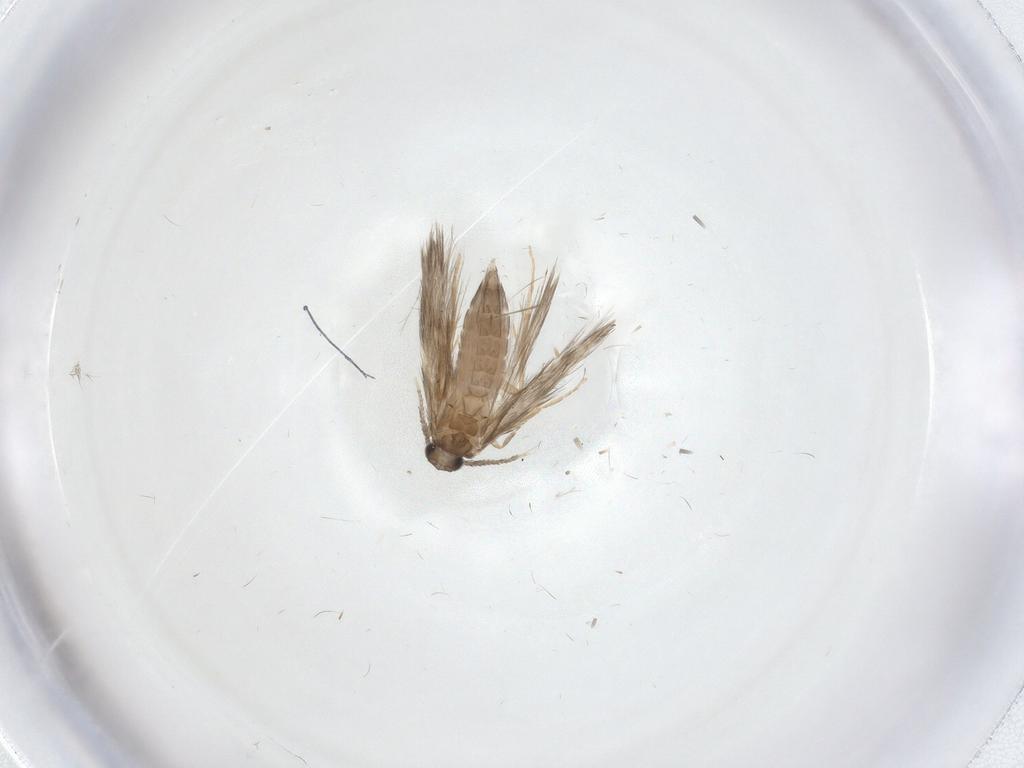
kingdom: Animalia
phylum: Arthropoda
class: Insecta
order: Trichoptera
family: Hydroptilidae
